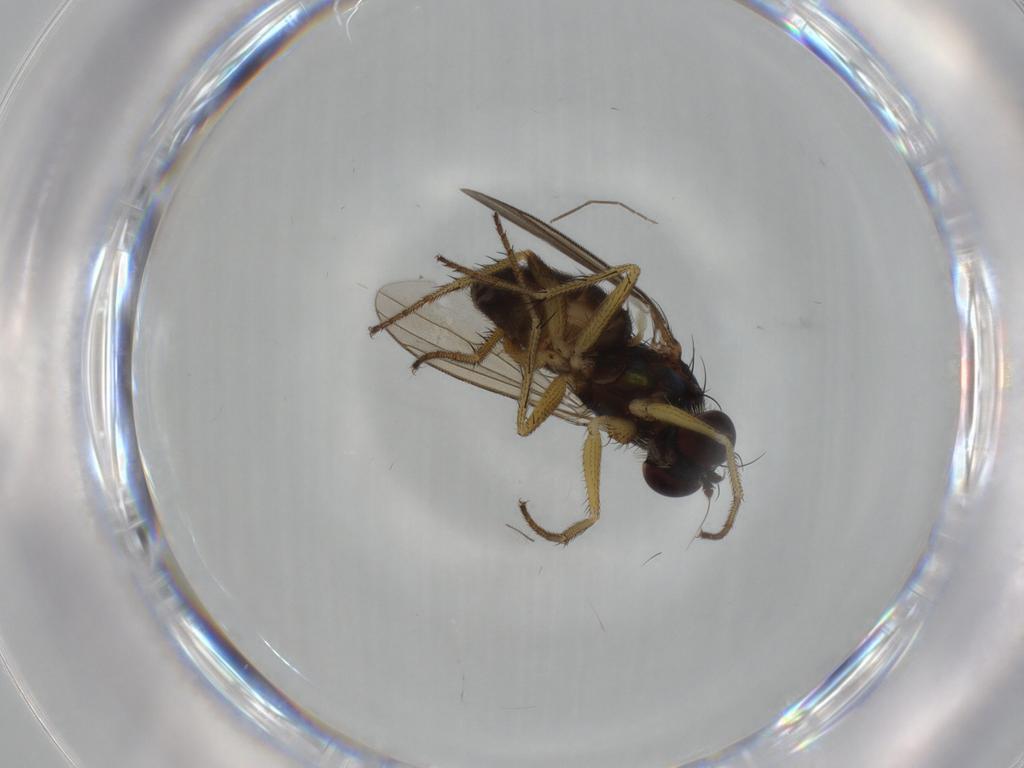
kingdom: Animalia
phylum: Arthropoda
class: Insecta
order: Diptera
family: Dolichopodidae
